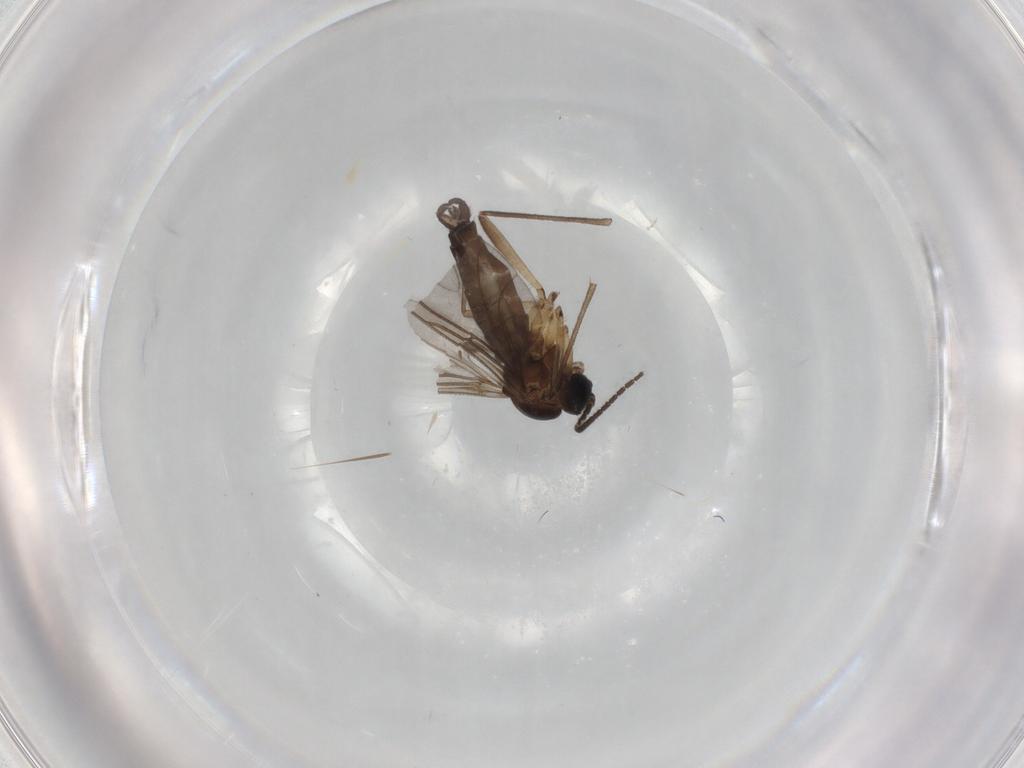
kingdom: Animalia
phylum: Arthropoda
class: Insecta
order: Diptera
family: Sciaridae
